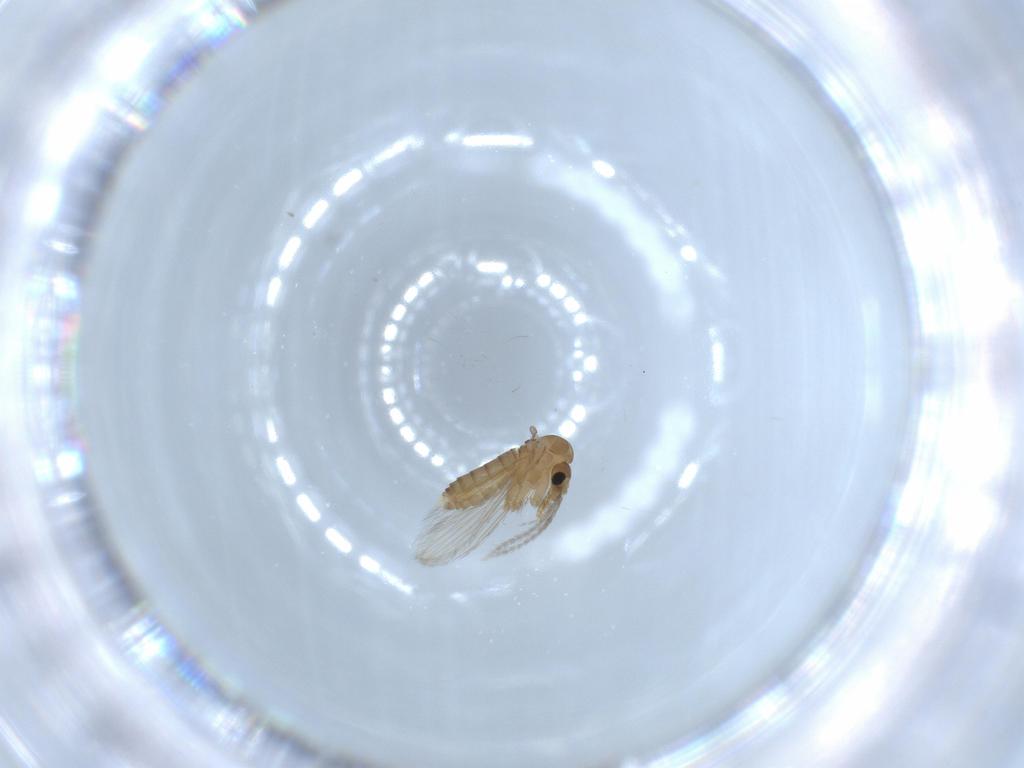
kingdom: Animalia
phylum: Arthropoda
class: Insecta
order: Diptera
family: Psychodidae
